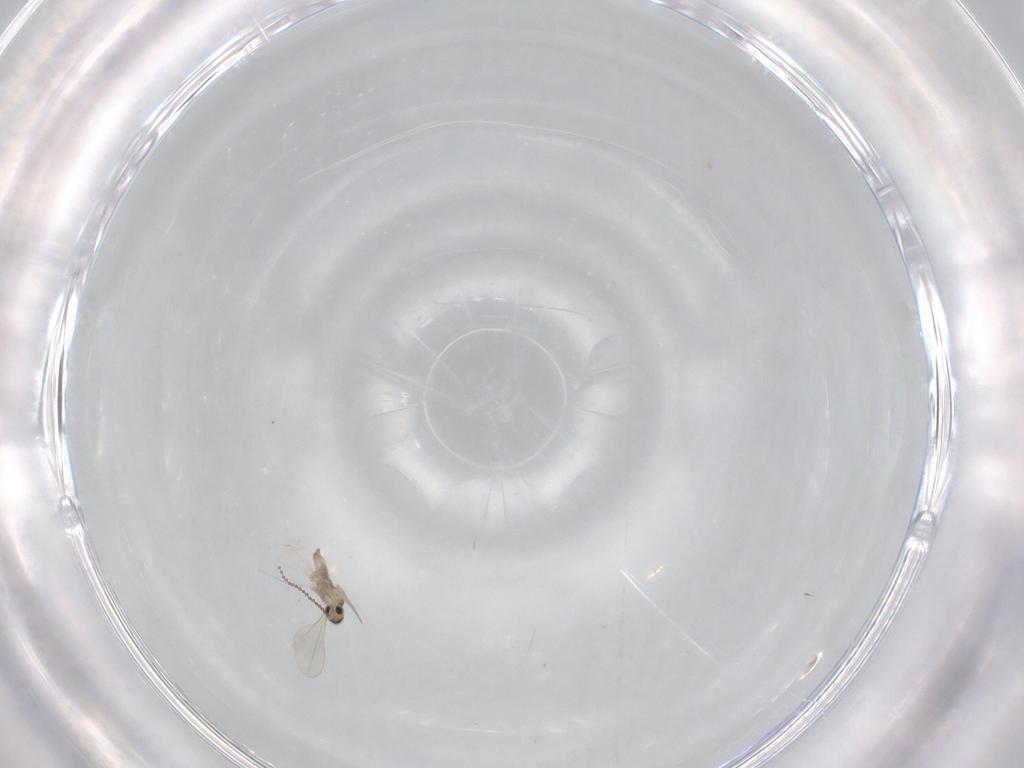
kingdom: Animalia
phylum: Arthropoda
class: Insecta
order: Diptera
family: Cecidomyiidae
